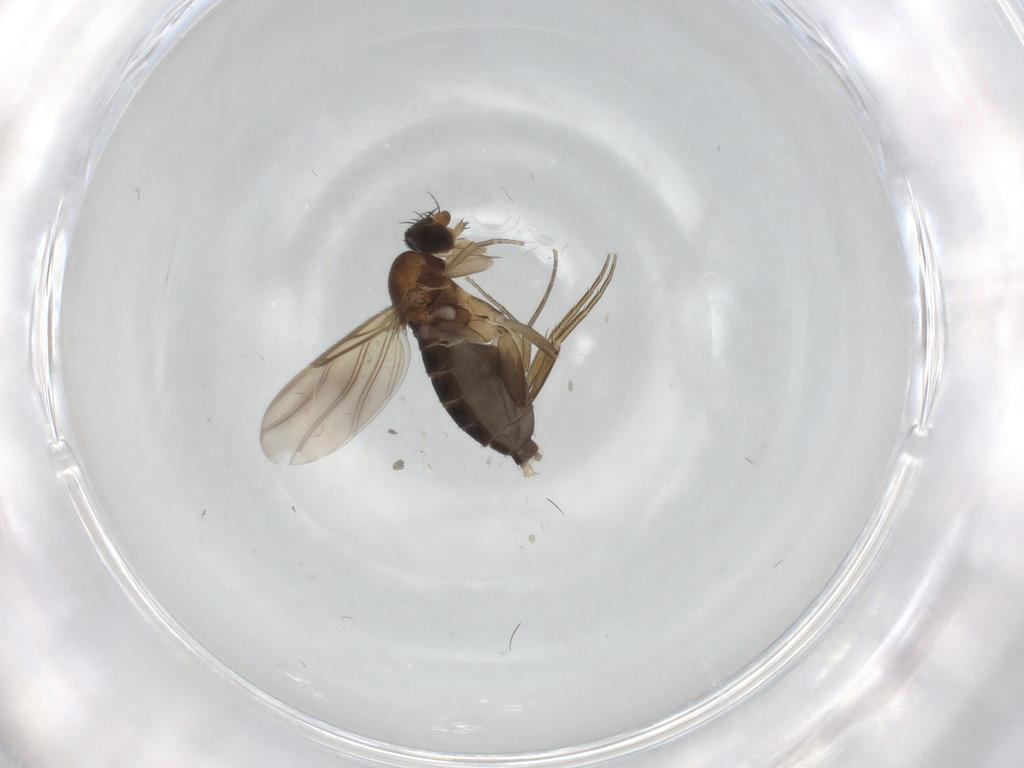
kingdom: Animalia
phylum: Arthropoda
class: Insecta
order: Diptera
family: Phoridae
